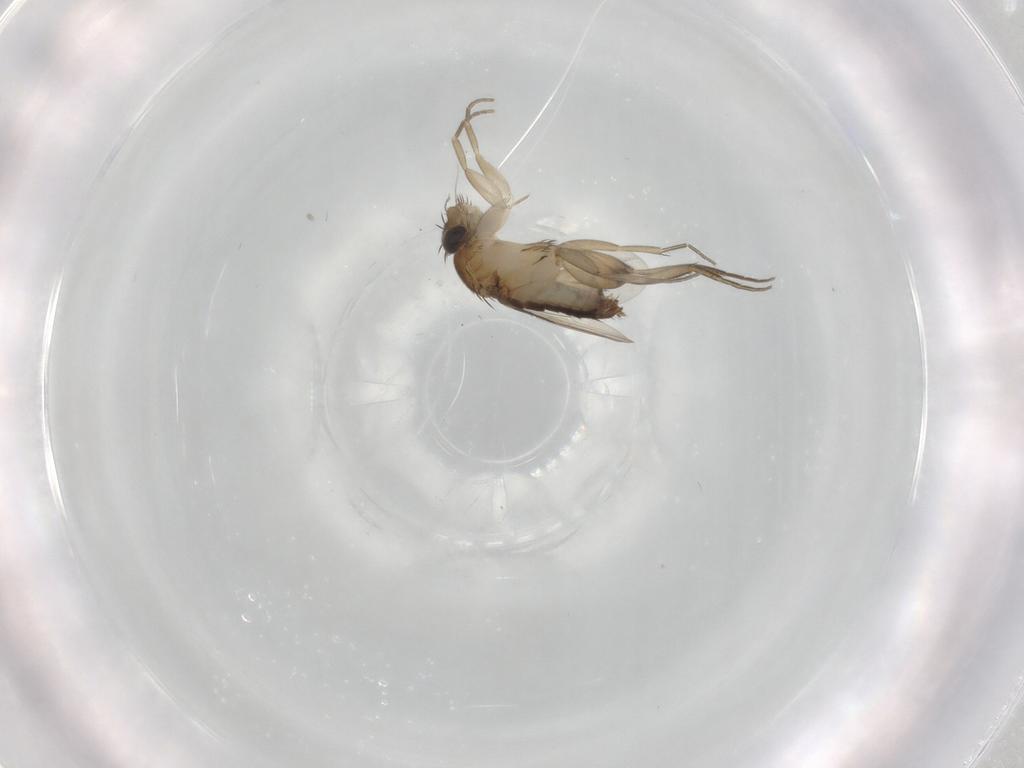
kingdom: Animalia
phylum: Arthropoda
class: Insecta
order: Diptera
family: Phoridae
